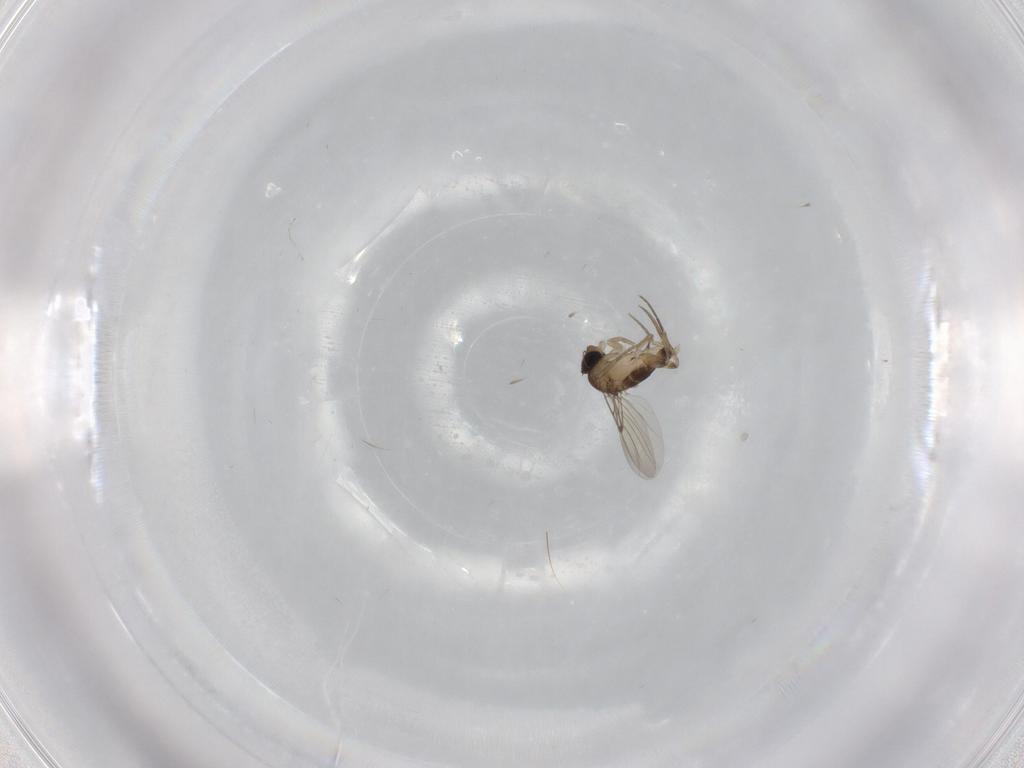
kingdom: Animalia
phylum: Arthropoda
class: Insecta
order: Diptera
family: Phoridae
